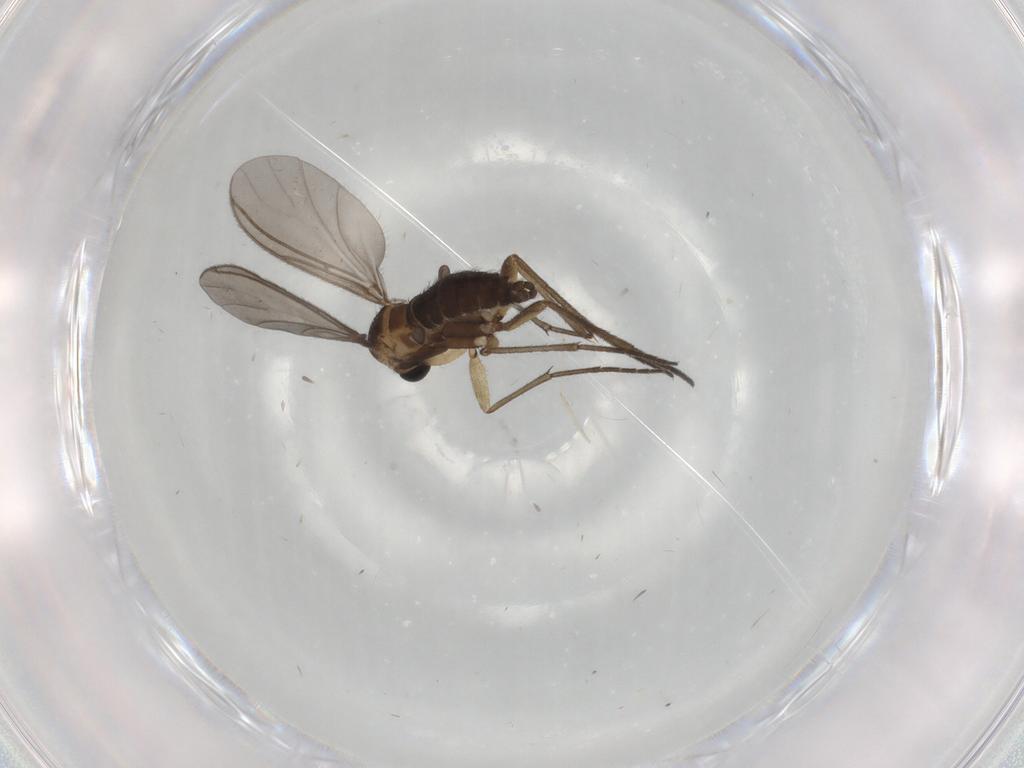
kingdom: Animalia
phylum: Arthropoda
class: Insecta
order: Diptera
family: Sciaridae
